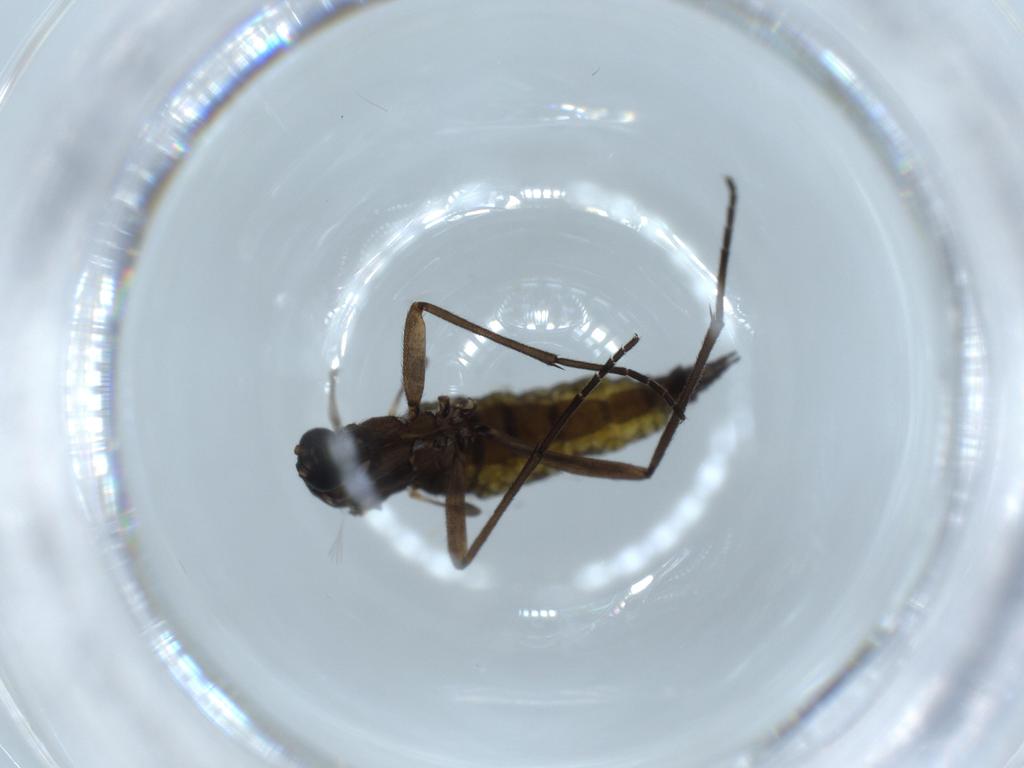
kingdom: Animalia
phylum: Arthropoda
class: Insecta
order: Diptera
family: Sciaridae
